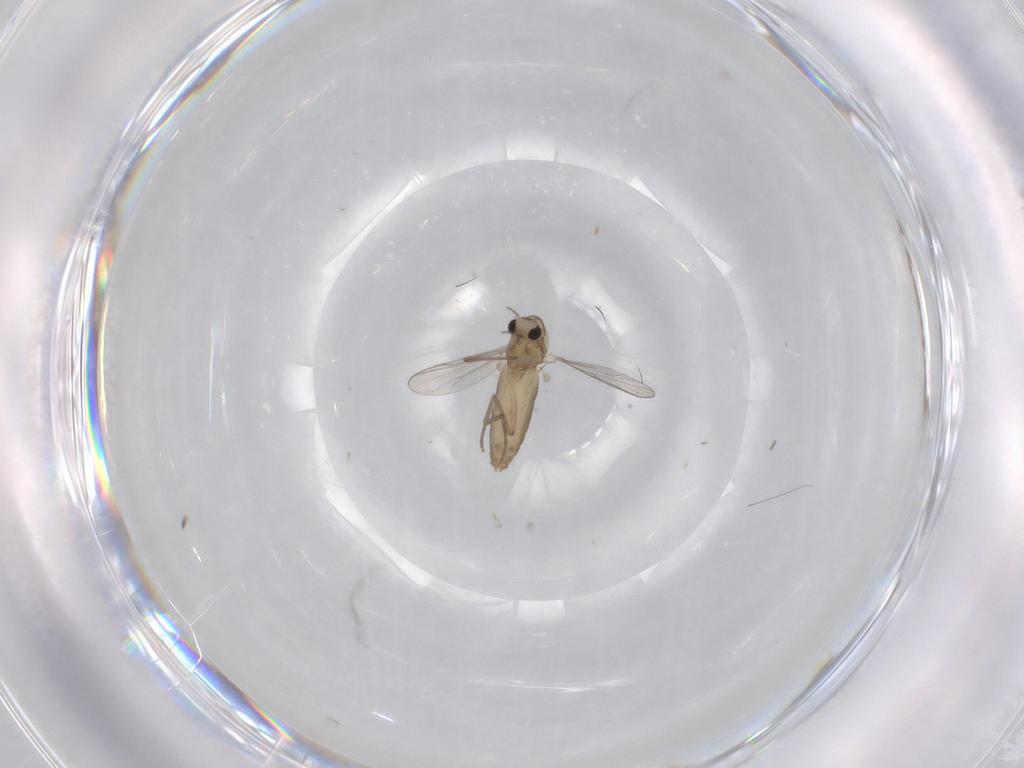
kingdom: Animalia
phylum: Arthropoda
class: Insecta
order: Diptera
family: Chironomidae
